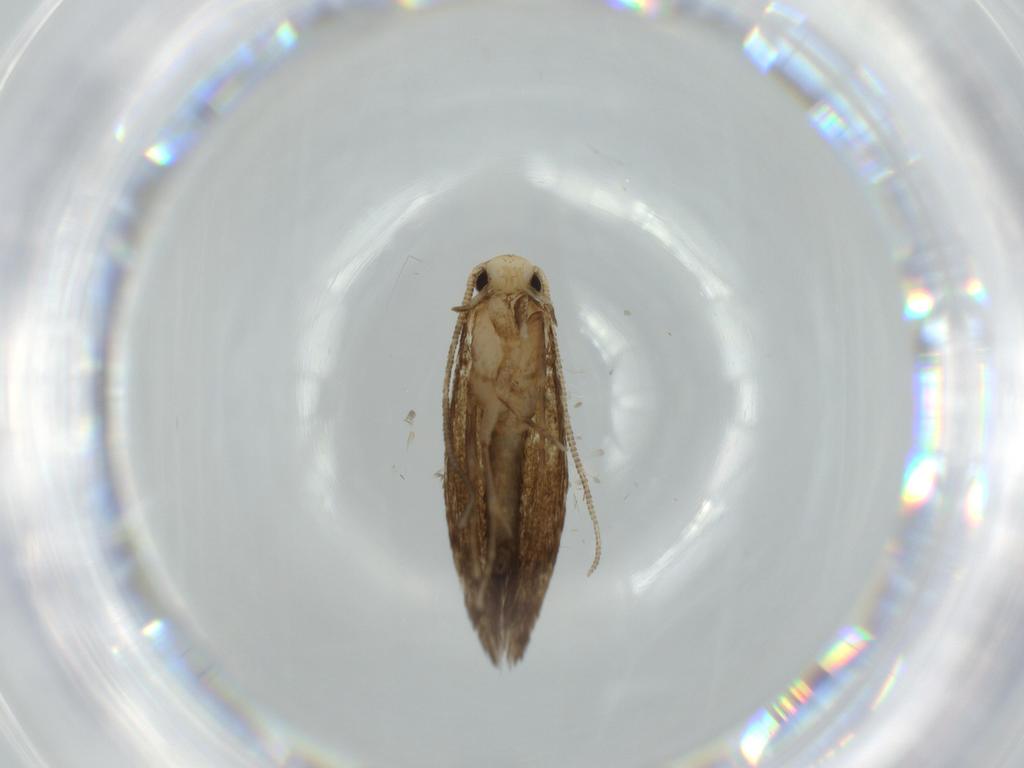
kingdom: Animalia
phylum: Arthropoda
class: Insecta
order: Lepidoptera
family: Tineidae
